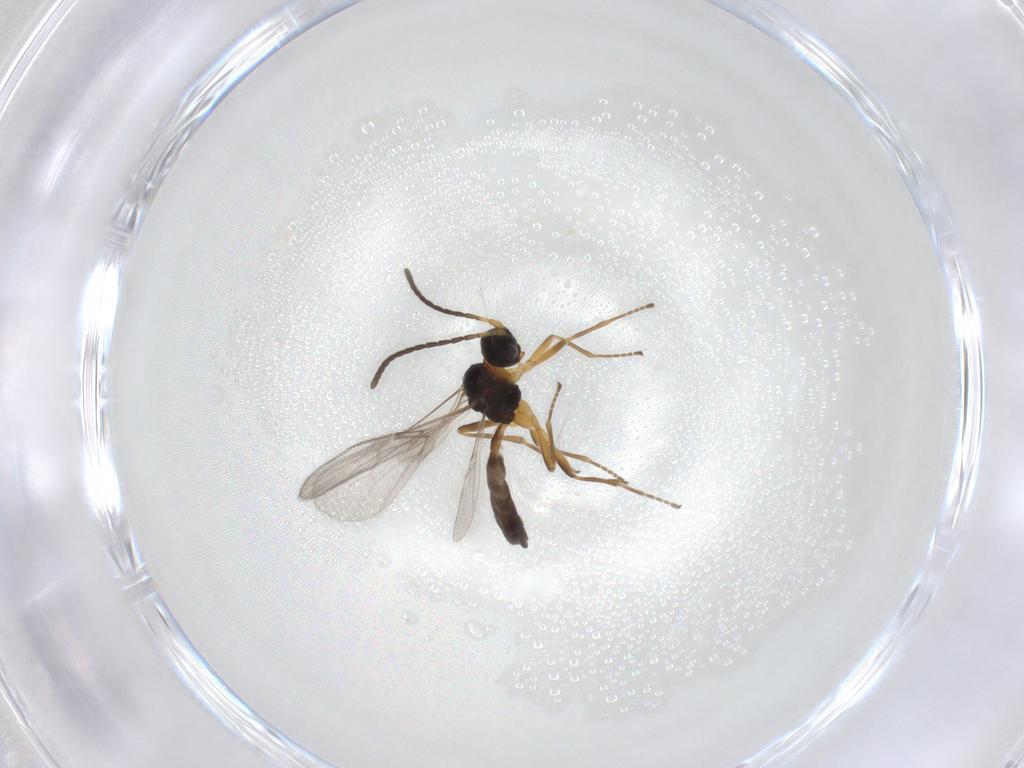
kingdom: Animalia
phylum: Arthropoda
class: Insecta
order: Hymenoptera
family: Braconidae
